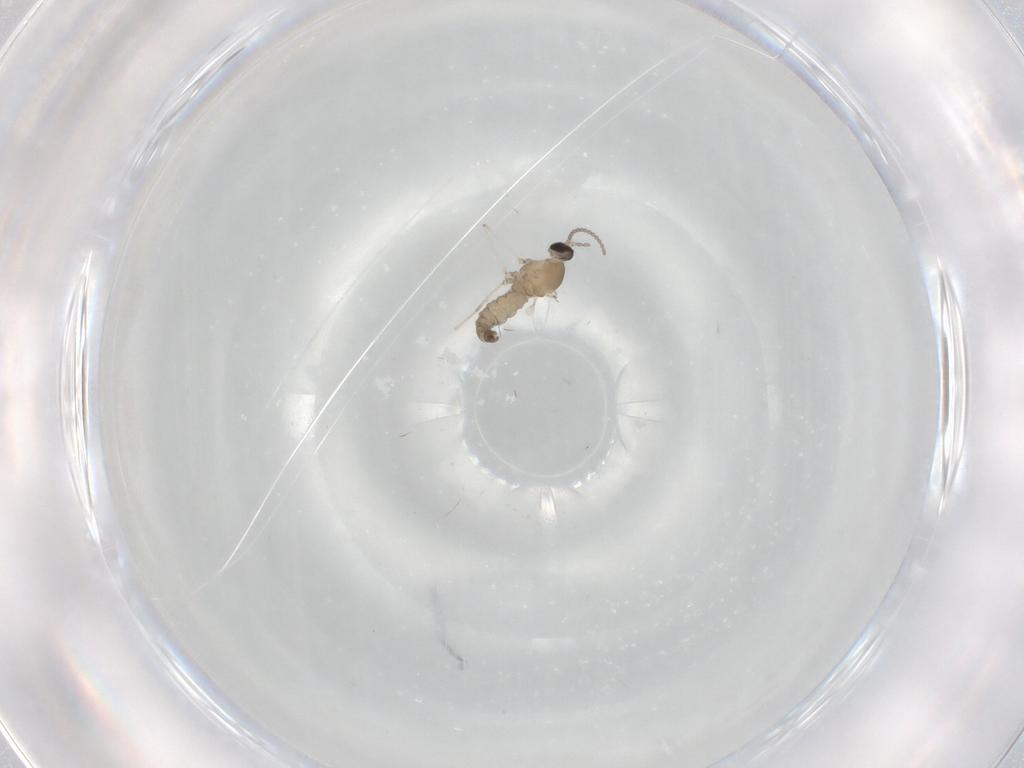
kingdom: Animalia
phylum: Arthropoda
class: Insecta
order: Diptera
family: Cecidomyiidae
